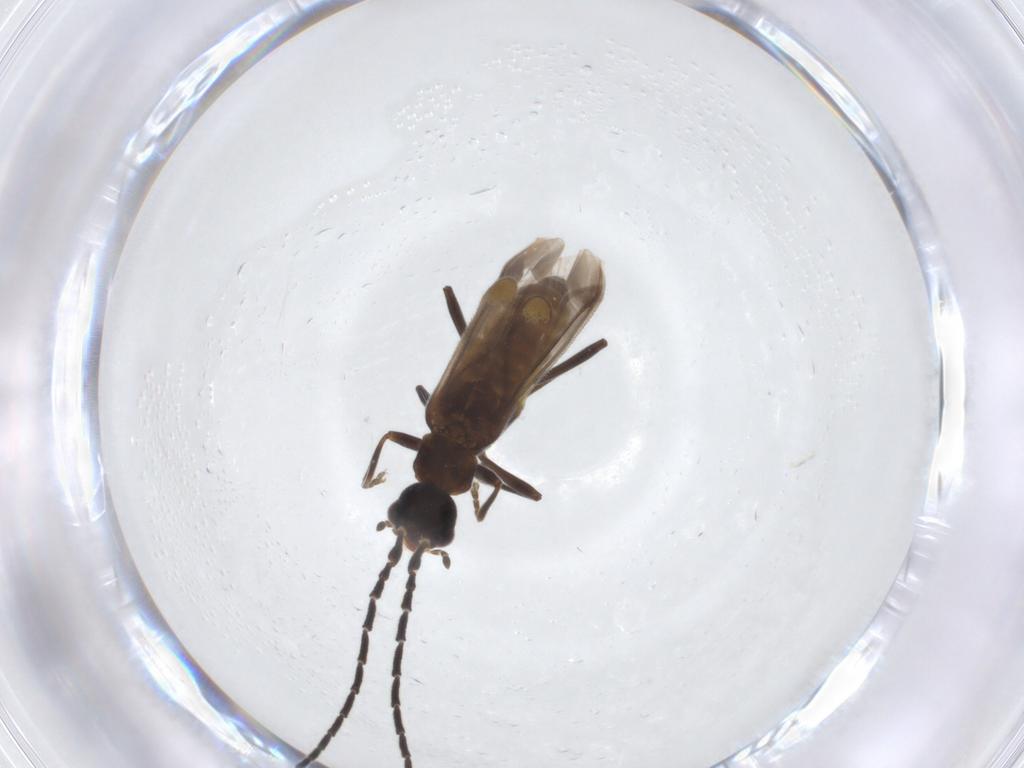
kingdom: Animalia
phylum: Arthropoda
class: Insecta
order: Coleoptera
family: Cantharidae
